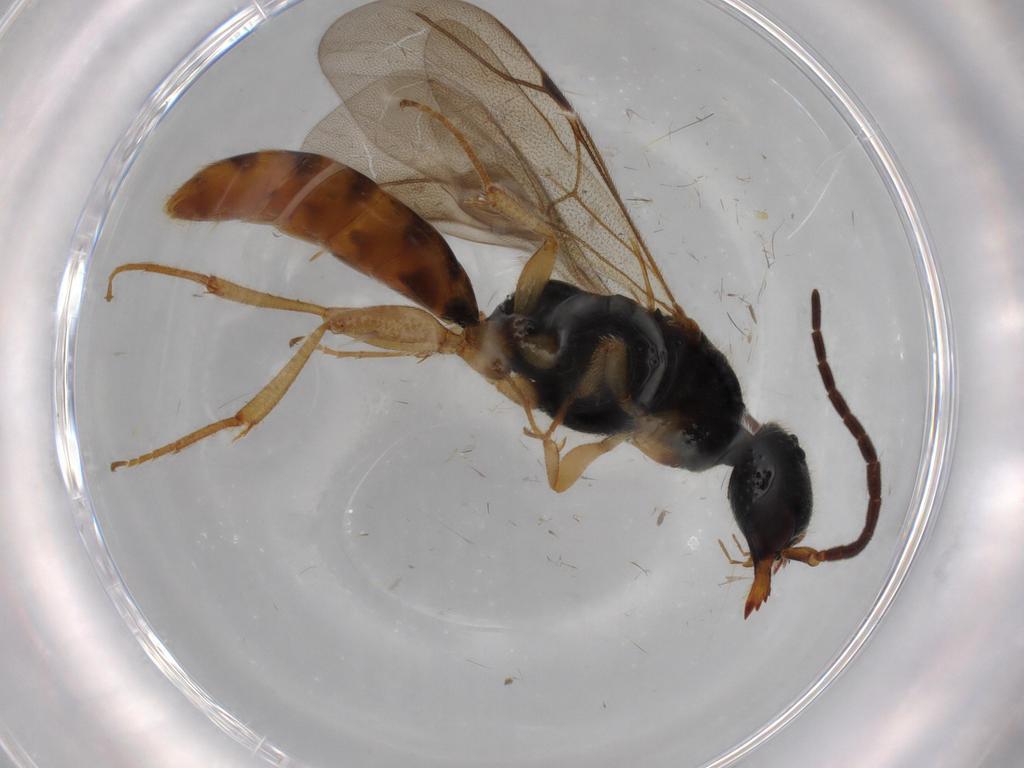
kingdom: Animalia
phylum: Arthropoda
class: Insecta
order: Hymenoptera
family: Bethylidae
